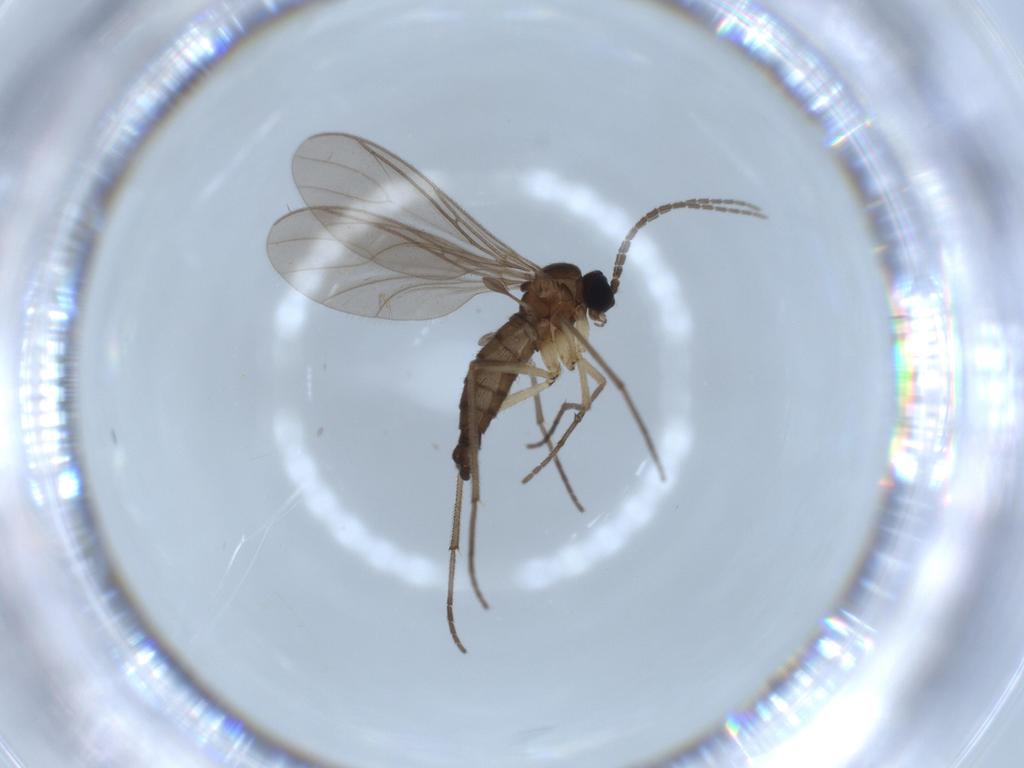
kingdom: Animalia
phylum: Arthropoda
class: Insecta
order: Diptera
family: Sciaridae
